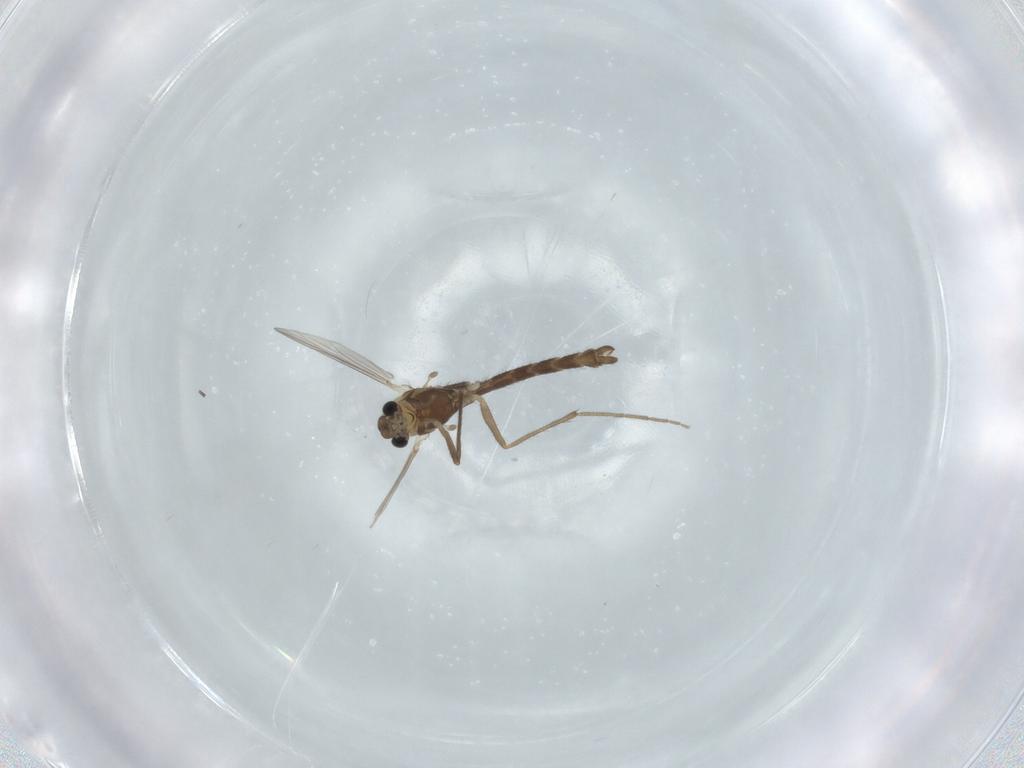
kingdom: Animalia
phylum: Arthropoda
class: Insecta
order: Diptera
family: Chironomidae
